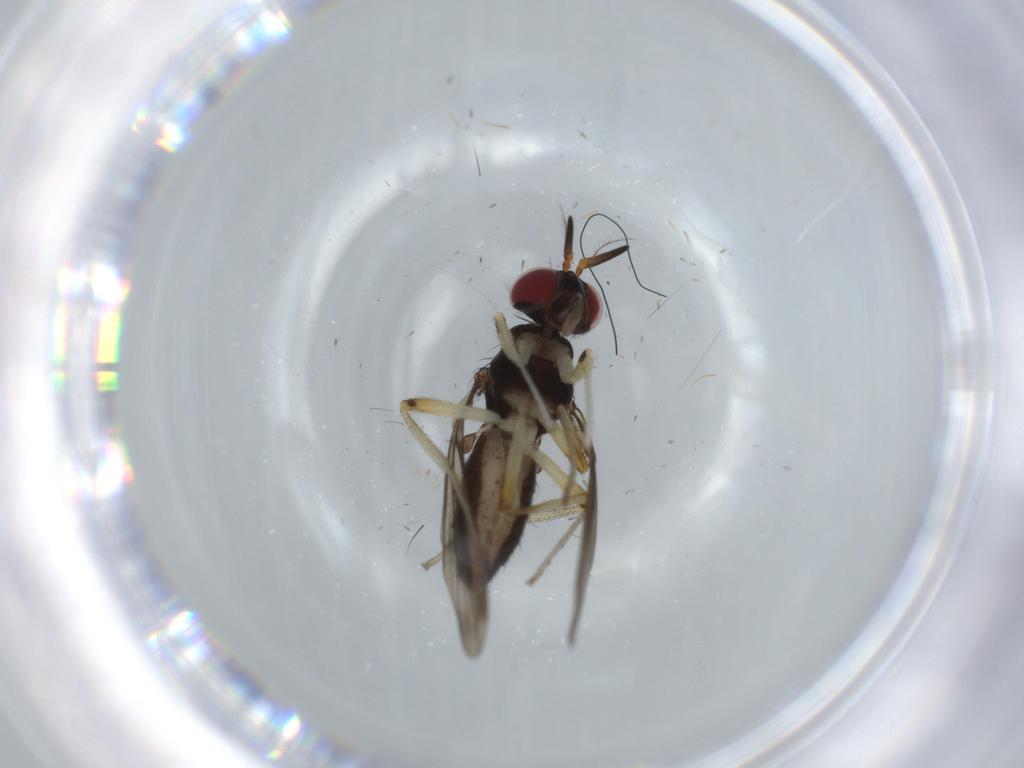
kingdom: Animalia
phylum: Arthropoda
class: Insecta
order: Diptera
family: Chironomidae
